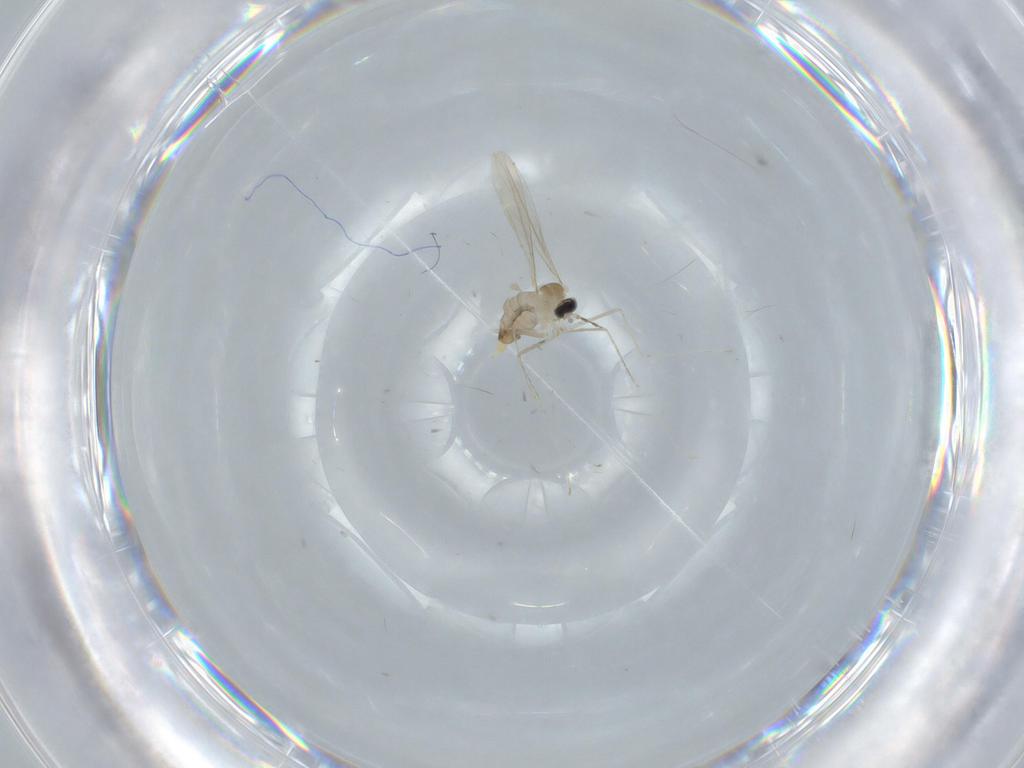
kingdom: Animalia
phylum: Arthropoda
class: Insecta
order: Diptera
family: Cecidomyiidae
